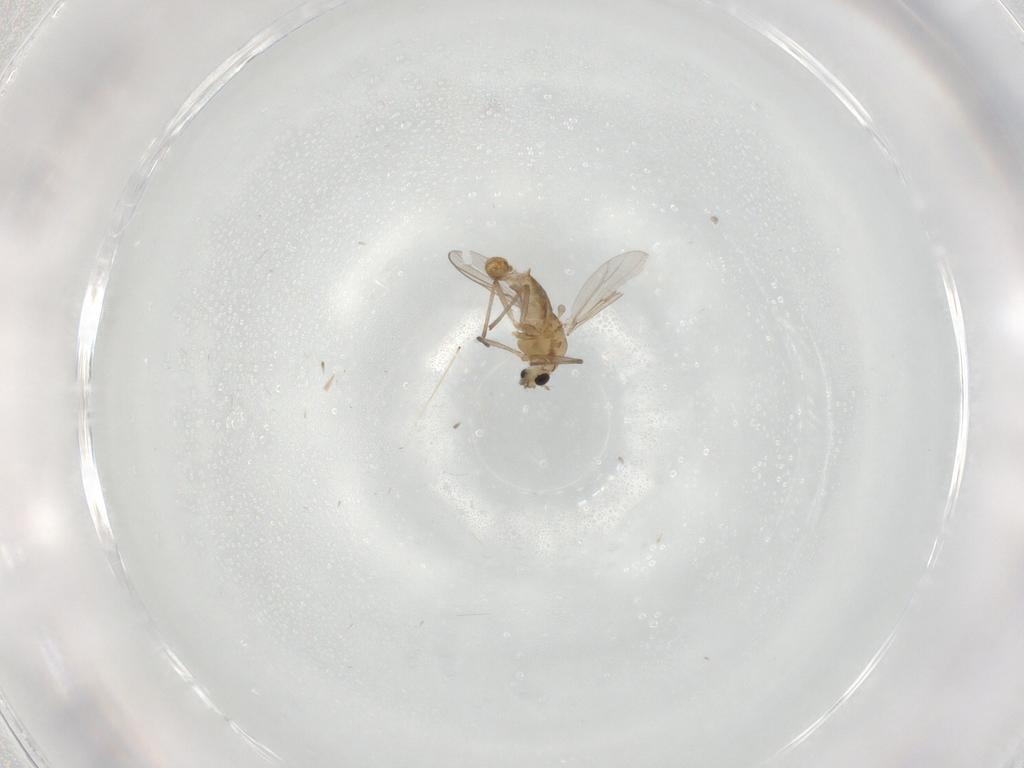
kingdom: Animalia
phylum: Arthropoda
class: Insecta
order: Diptera
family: Chironomidae
